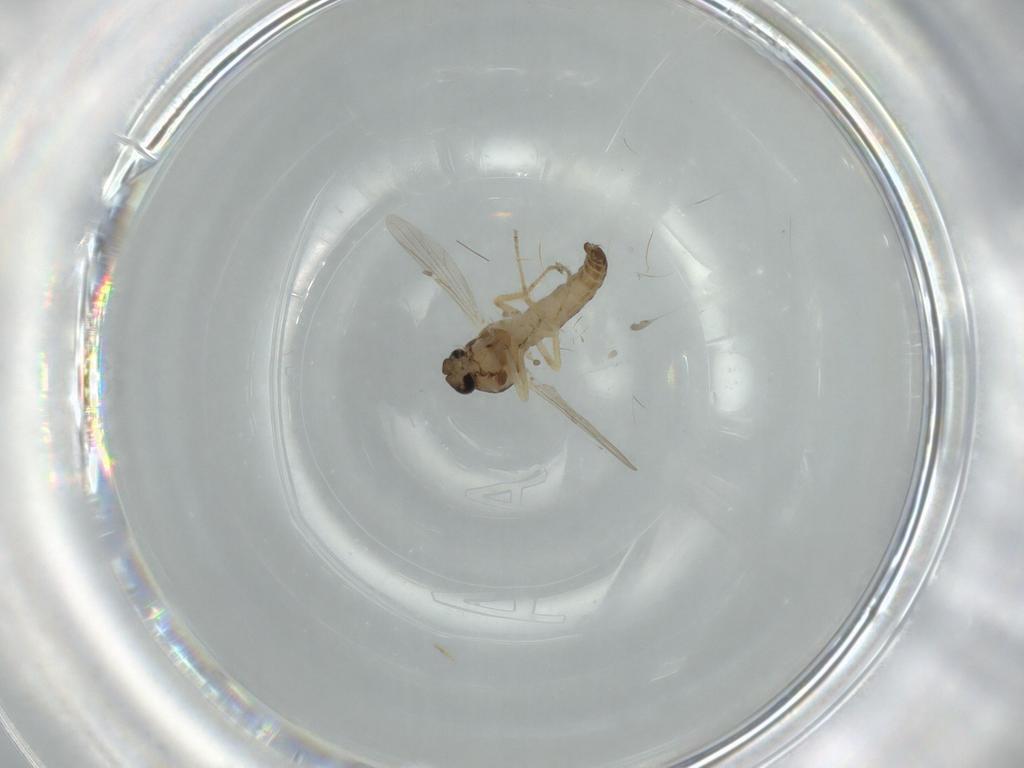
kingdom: Animalia
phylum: Arthropoda
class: Insecta
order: Diptera
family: Ceratopogonidae
